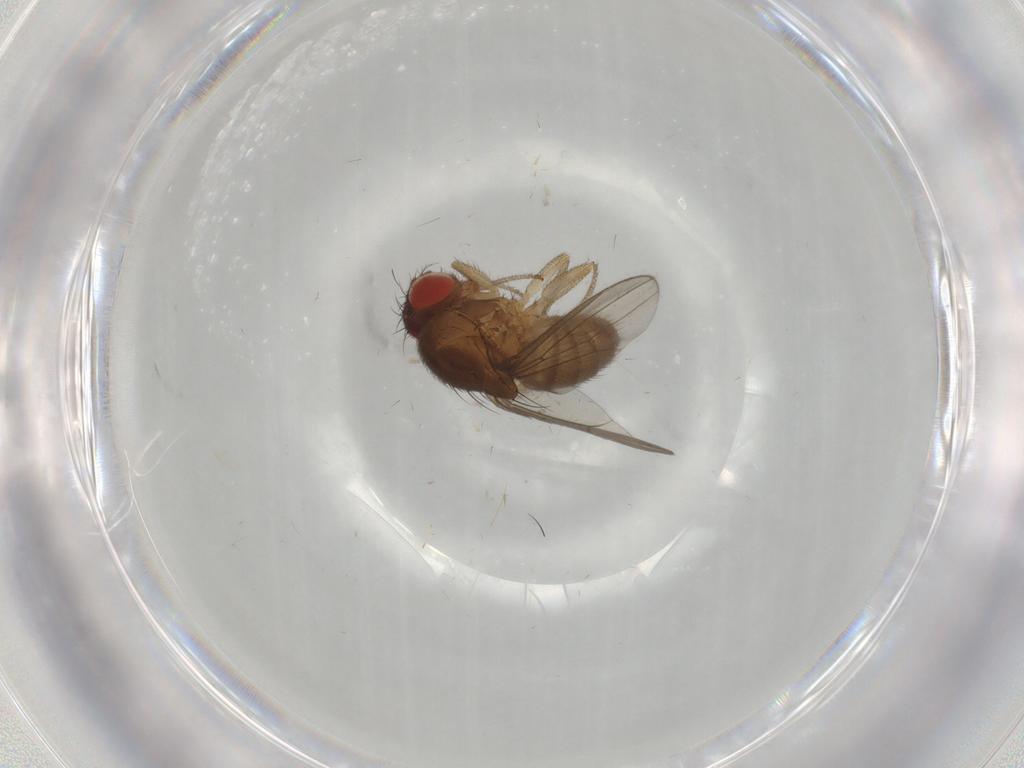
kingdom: Animalia
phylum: Arthropoda
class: Insecta
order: Diptera
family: Drosophilidae
